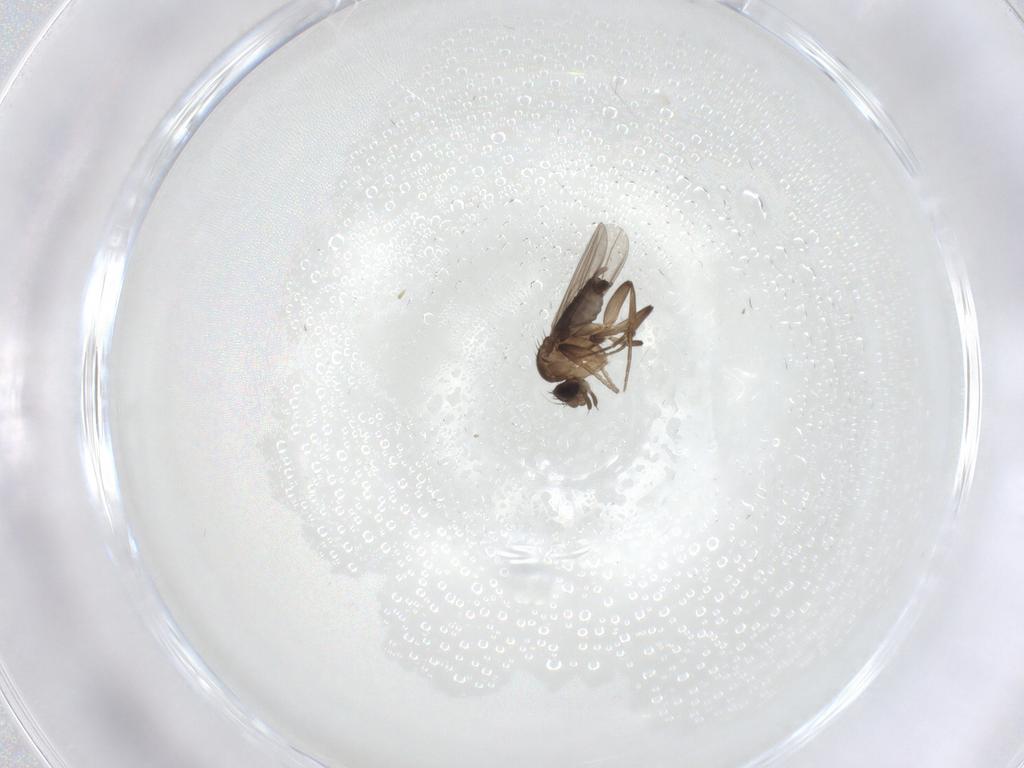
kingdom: Animalia
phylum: Arthropoda
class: Insecta
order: Diptera
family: Phoridae
